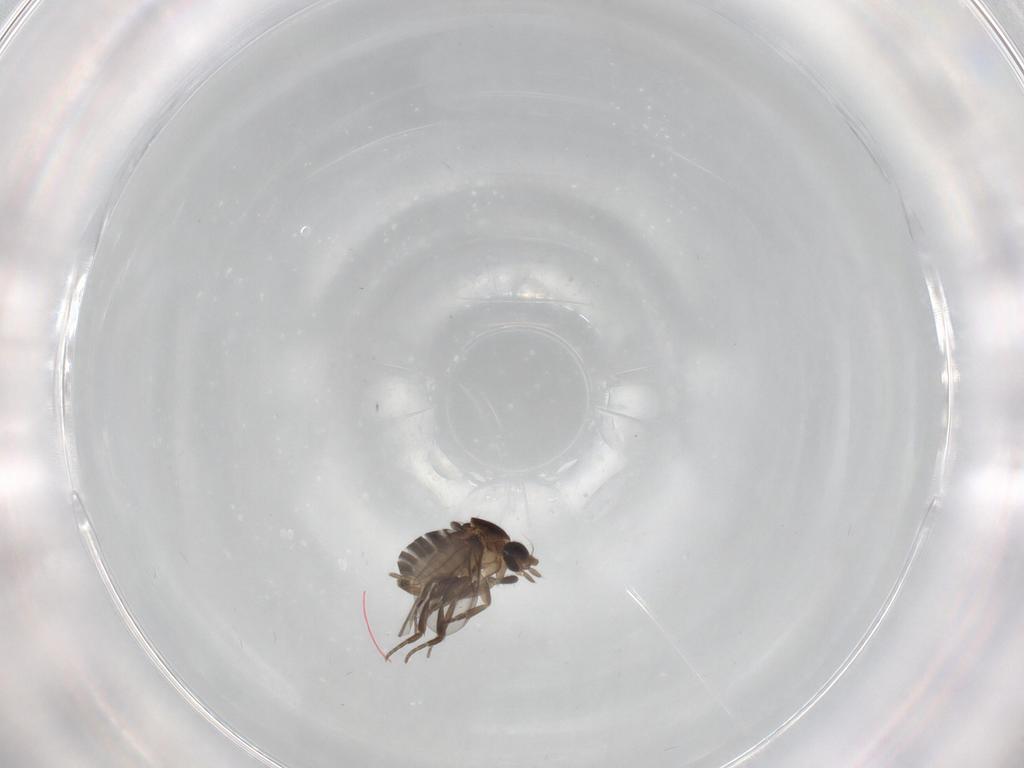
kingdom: Animalia
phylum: Arthropoda
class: Insecta
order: Diptera
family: Phoridae
